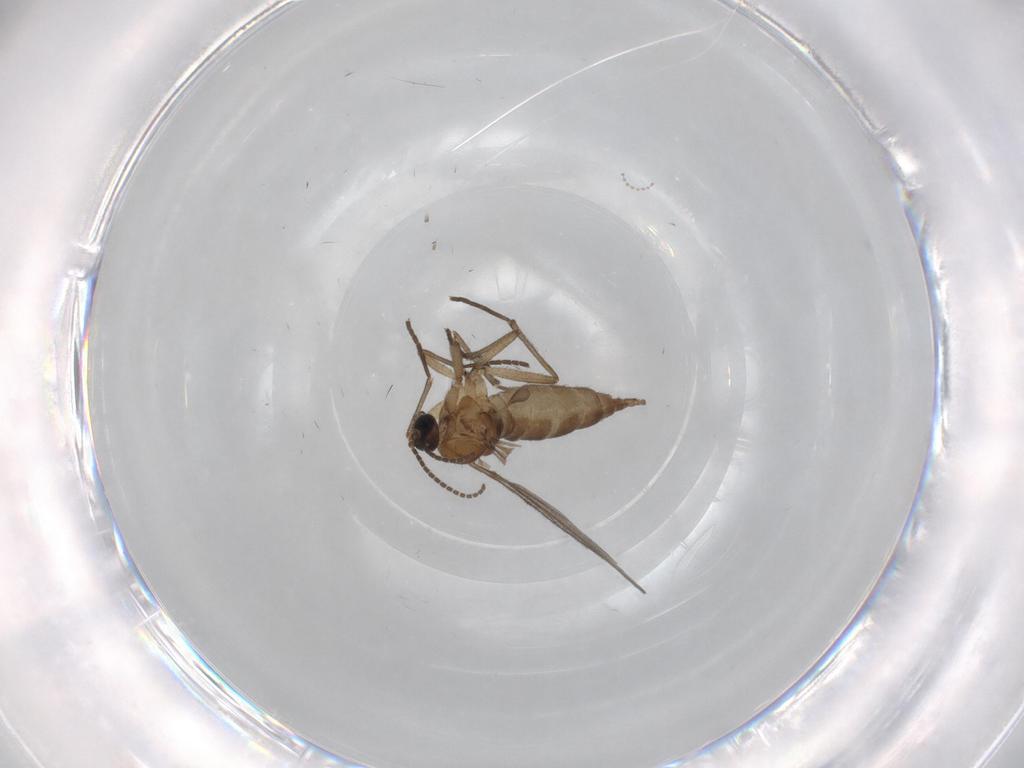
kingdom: Animalia
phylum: Arthropoda
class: Insecta
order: Diptera
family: Sciaridae
